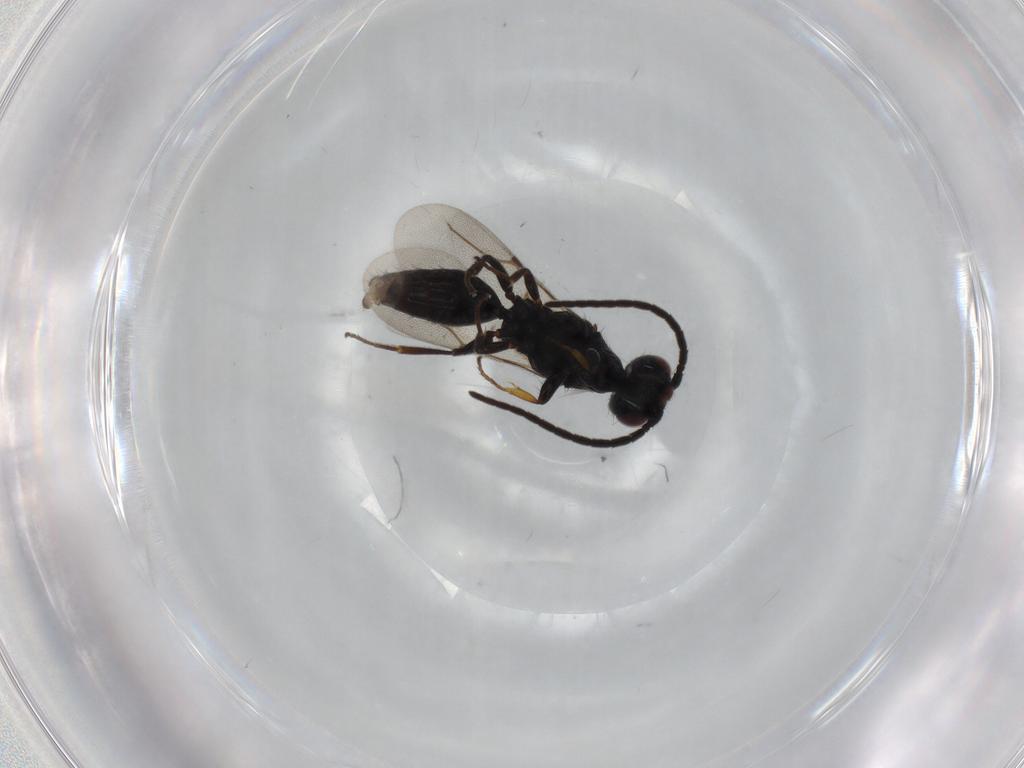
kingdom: Animalia
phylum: Arthropoda
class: Insecta
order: Hymenoptera
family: Bethylidae
